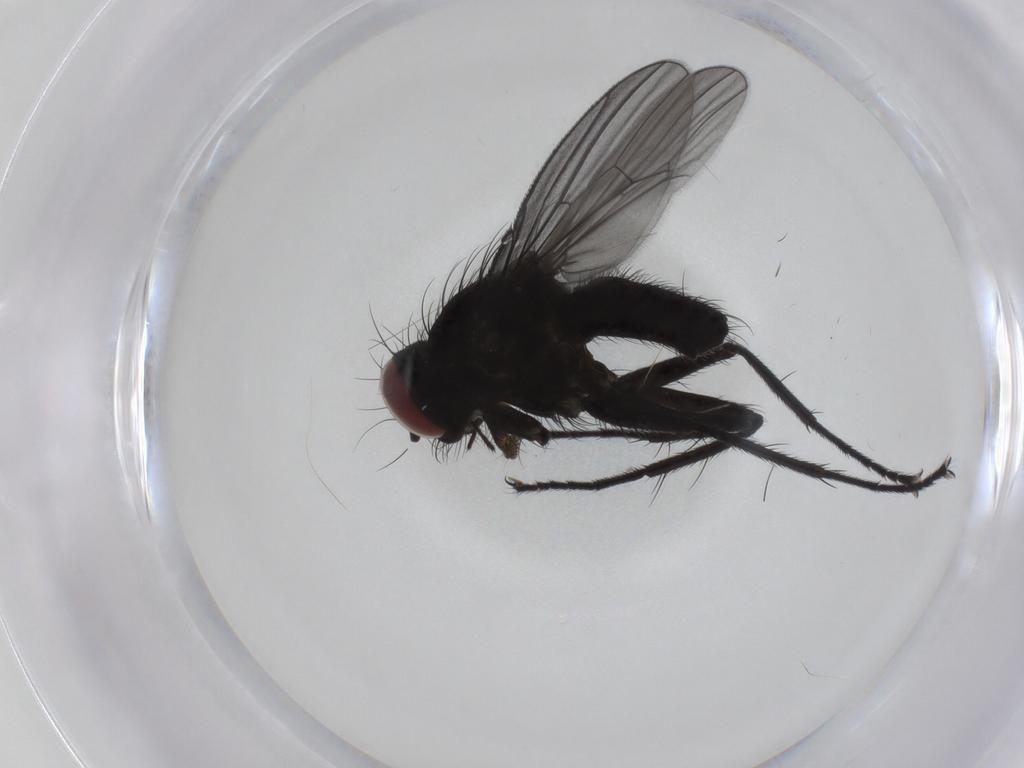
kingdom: Animalia
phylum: Arthropoda
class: Insecta
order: Diptera
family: Muscidae
